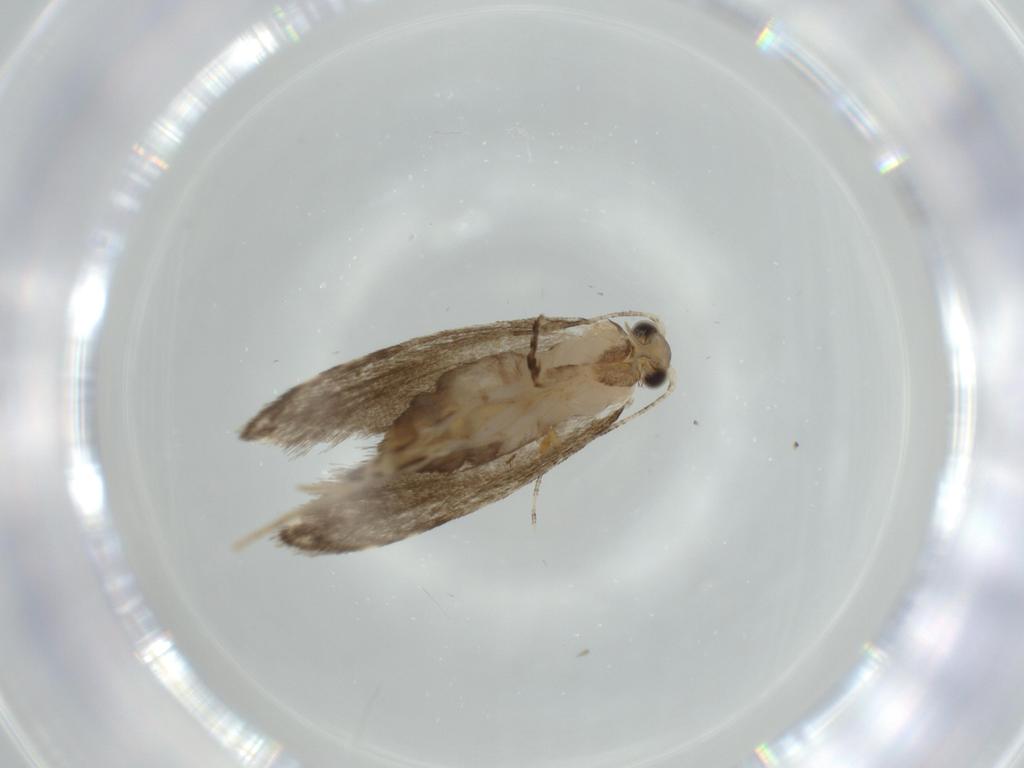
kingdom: Animalia
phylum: Arthropoda
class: Insecta
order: Lepidoptera
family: Tineidae
